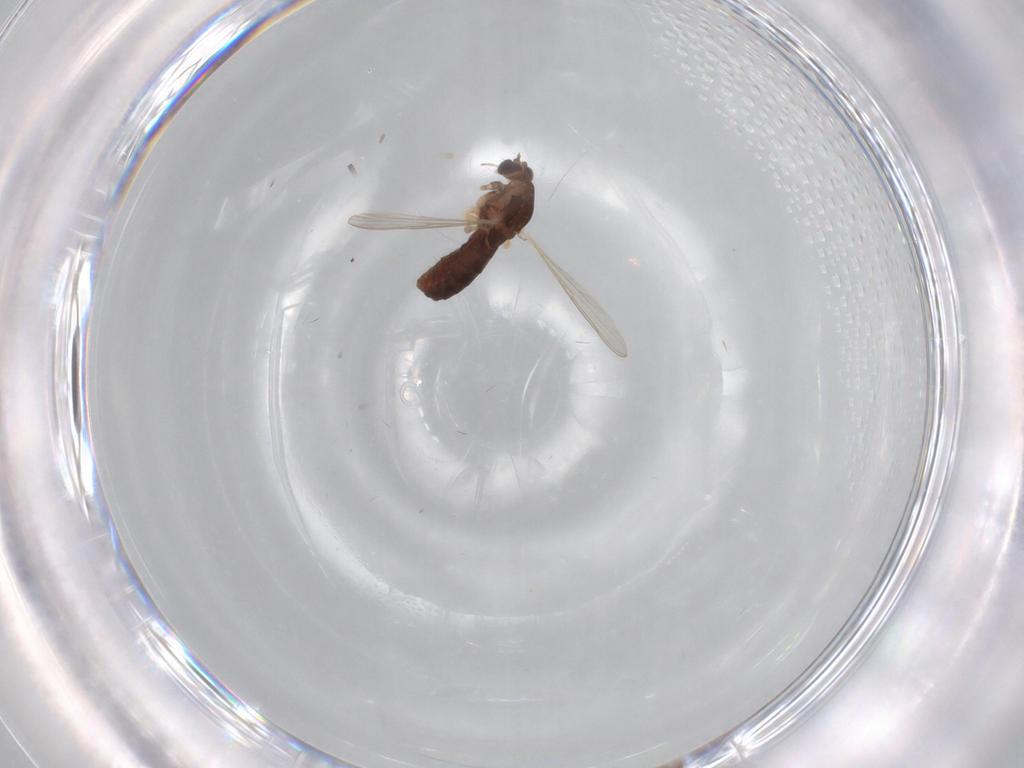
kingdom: Animalia
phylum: Arthropoda
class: Insecta
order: Diptera
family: Chironomidae
